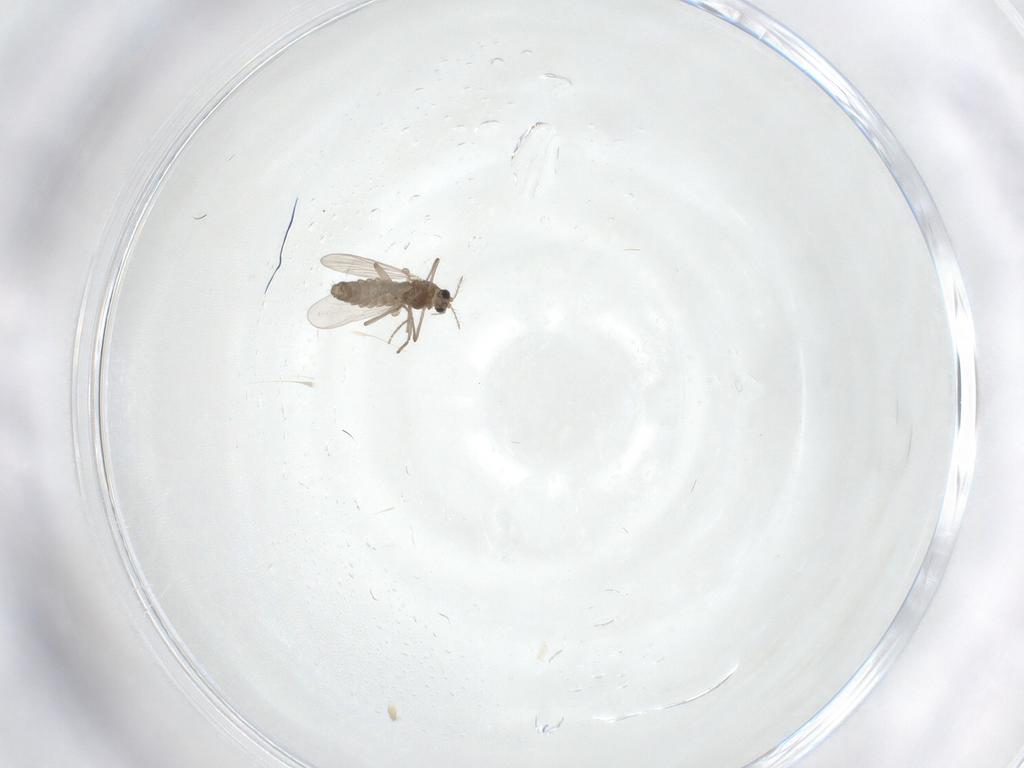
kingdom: Animalia
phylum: Arthropoda
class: Insecta
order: Diptera
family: Chironomidae
